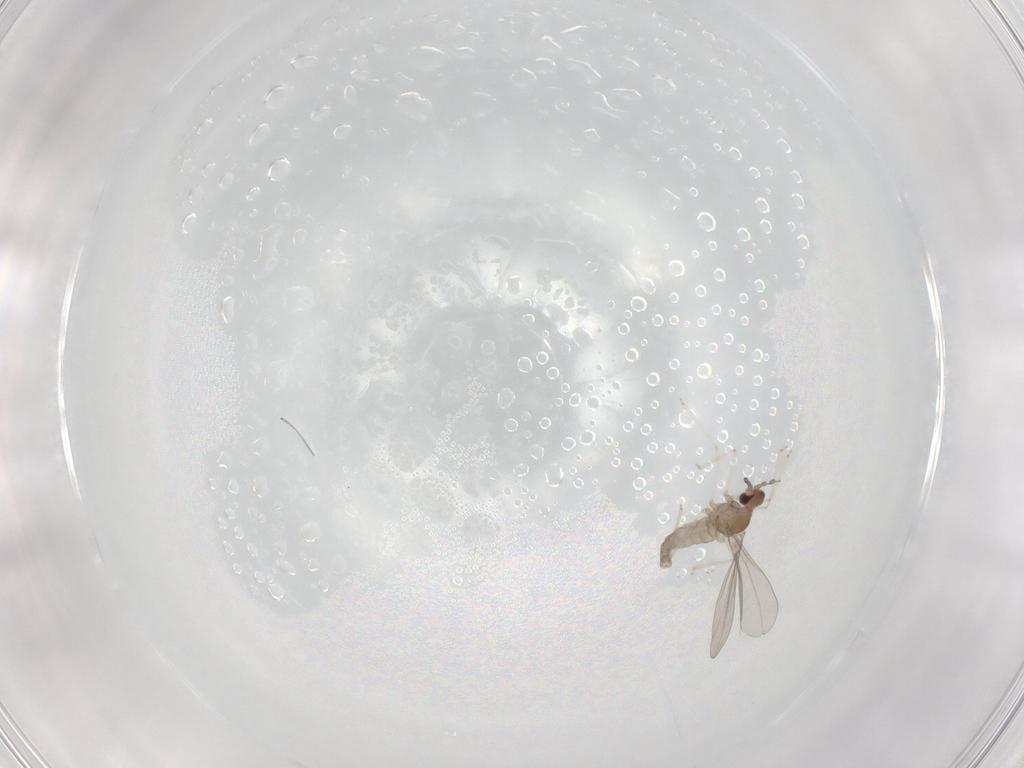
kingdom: Animalia
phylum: Arthropoda
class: Insecta
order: Diptera
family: Cecidomyiidae
